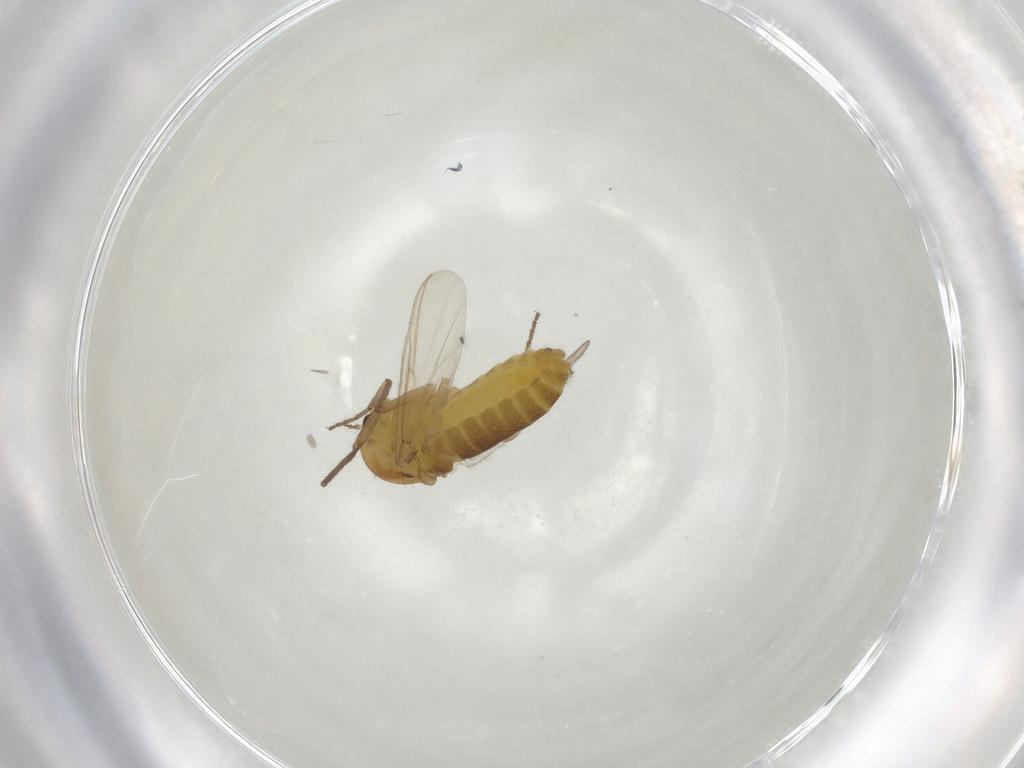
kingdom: Animalia
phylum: Arthropoda
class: Insecta
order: Diptera
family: Chironomidae
